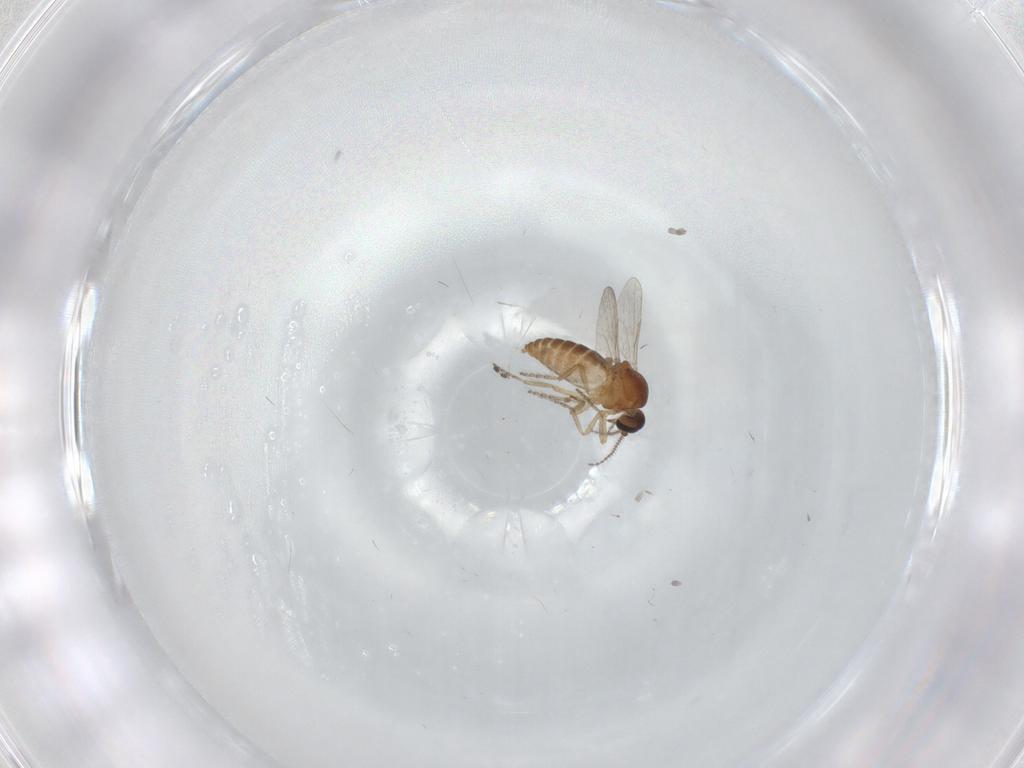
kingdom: Animalia
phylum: Arthropoda
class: Insecta
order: Diptera
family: Ceratopogonidae
